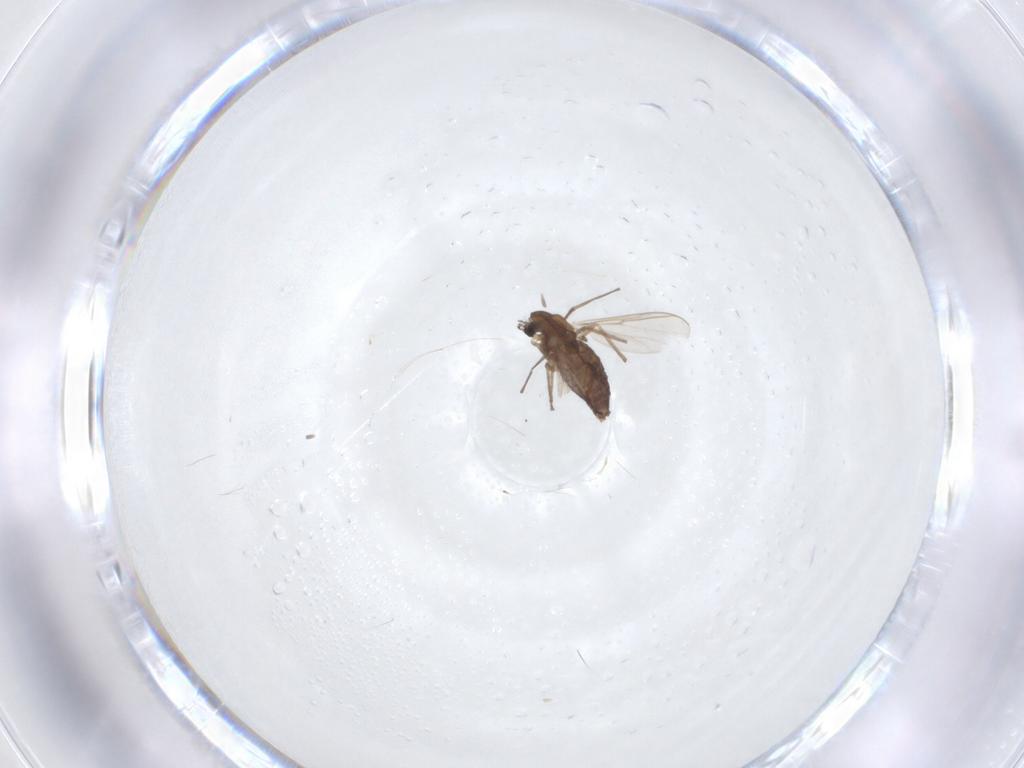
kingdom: Animalia
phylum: Arthropoda
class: Insecta
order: Diptera
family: Chironomidae
